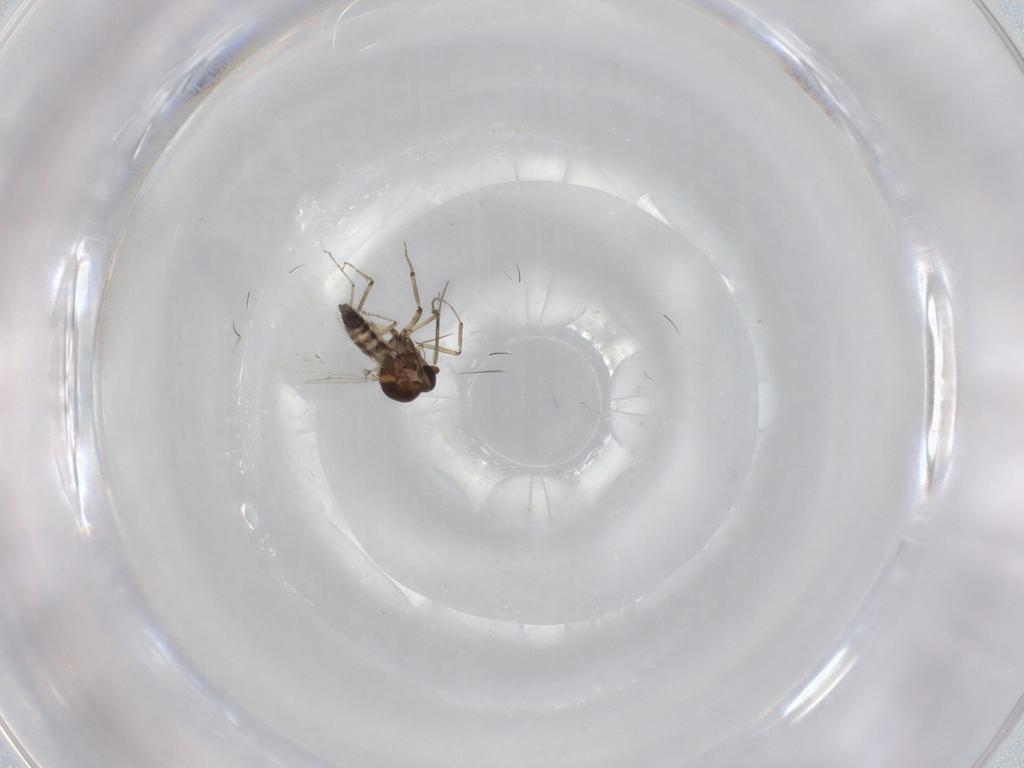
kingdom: Animalia
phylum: Arthropoda
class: Insecta
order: Diptera
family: Ceratopogonidae
